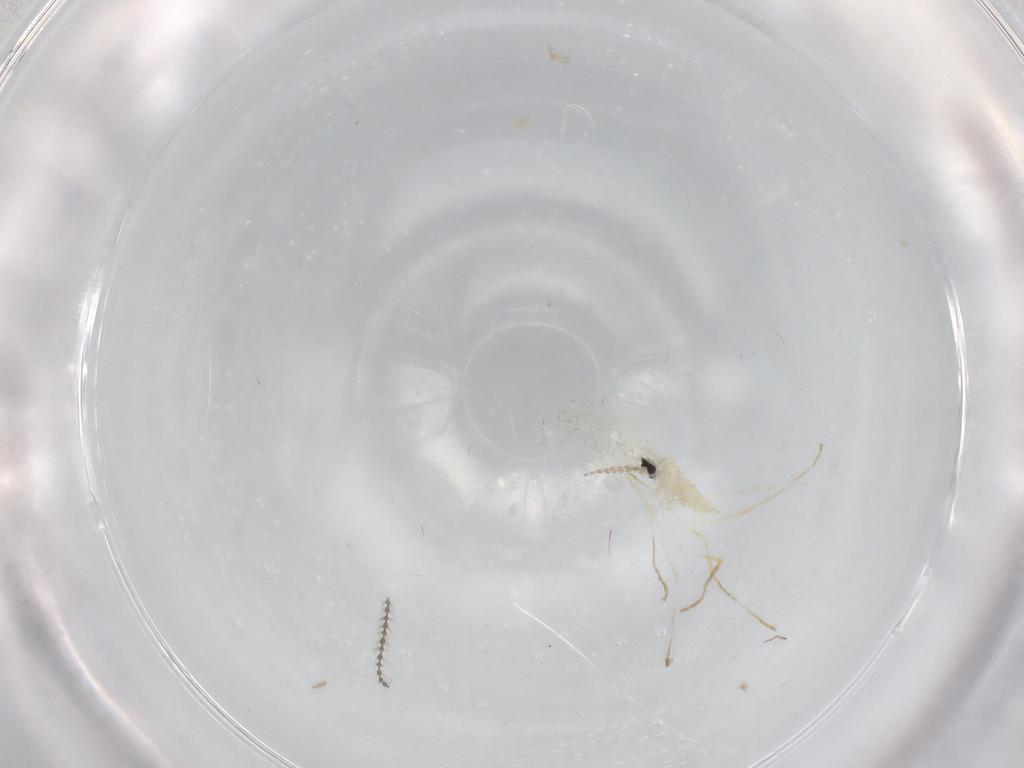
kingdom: Animalia
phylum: Arthropoda
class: Insecta
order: Diptera
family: Cecidomyiidae
